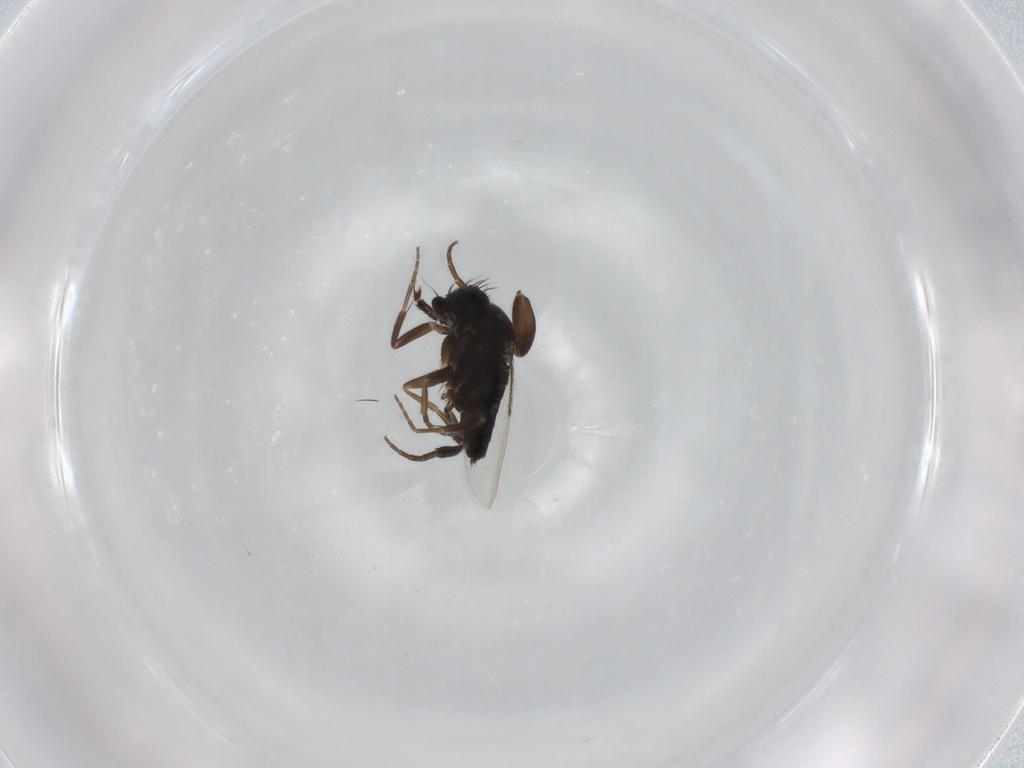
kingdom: Animalia
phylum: Arthropoda
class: Insecta
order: Diptera
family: Phoridae
